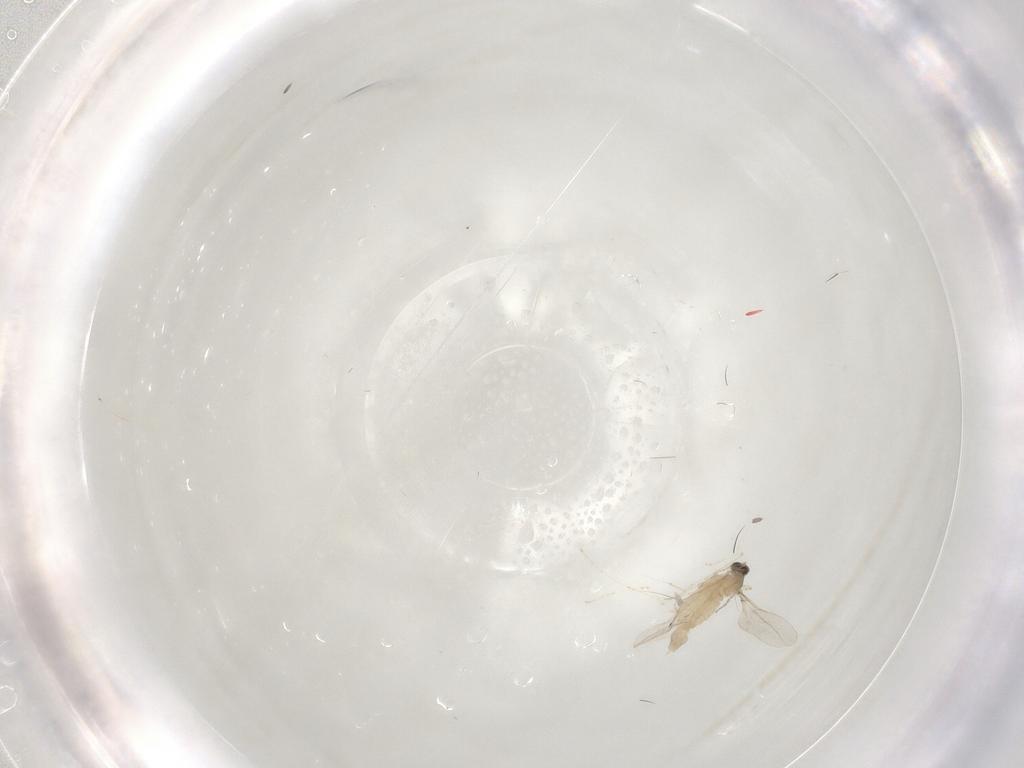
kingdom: Animalia
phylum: Arthropoda
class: Insecta
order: Diptera
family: Cecidomyiidae
